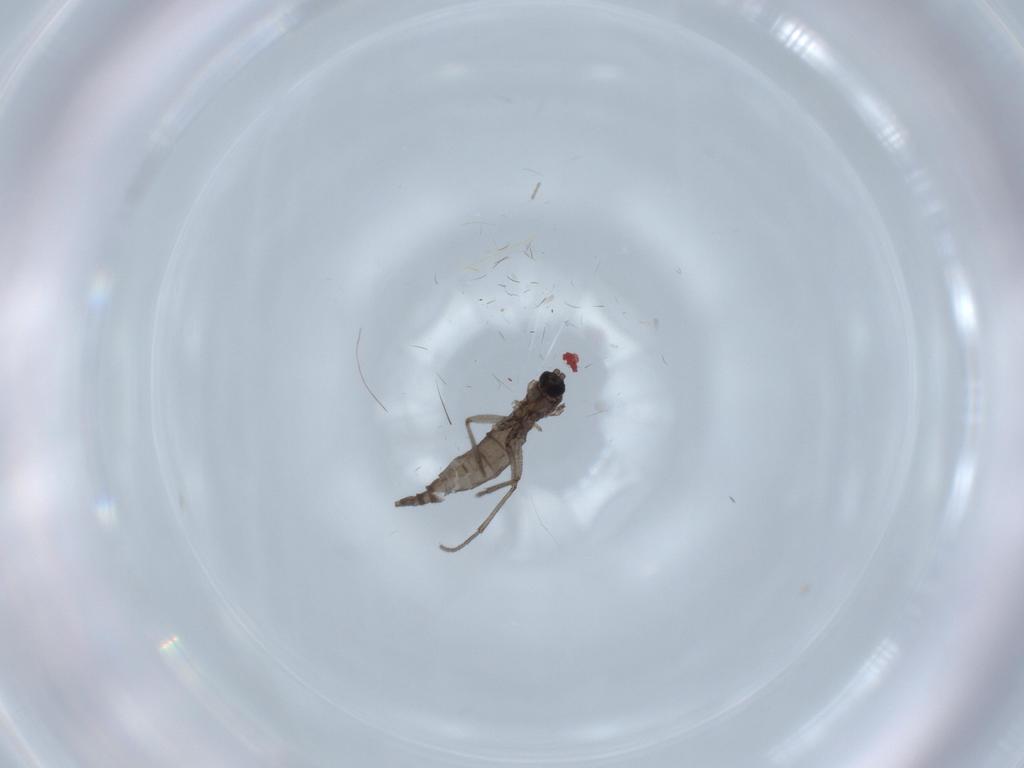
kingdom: Animalia
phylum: Arthropoda
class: Insecta
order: Diptera
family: Sciaridae
